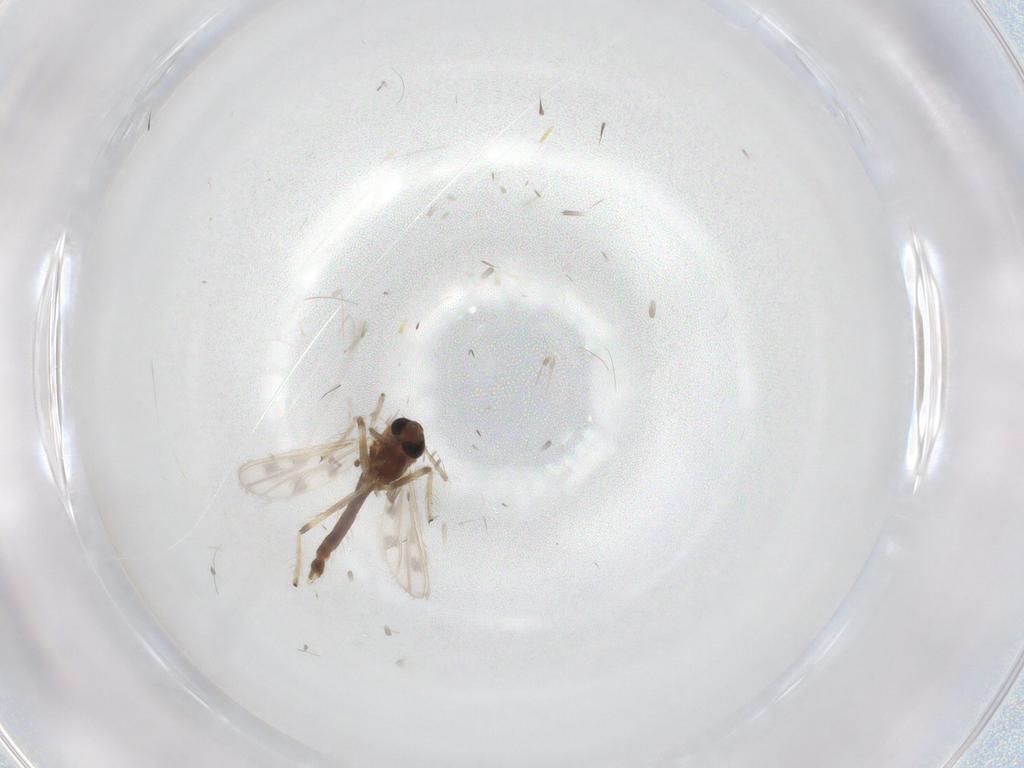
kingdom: Animalia
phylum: Arthropoda
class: Insecta
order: Diptera
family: Chironomidae
